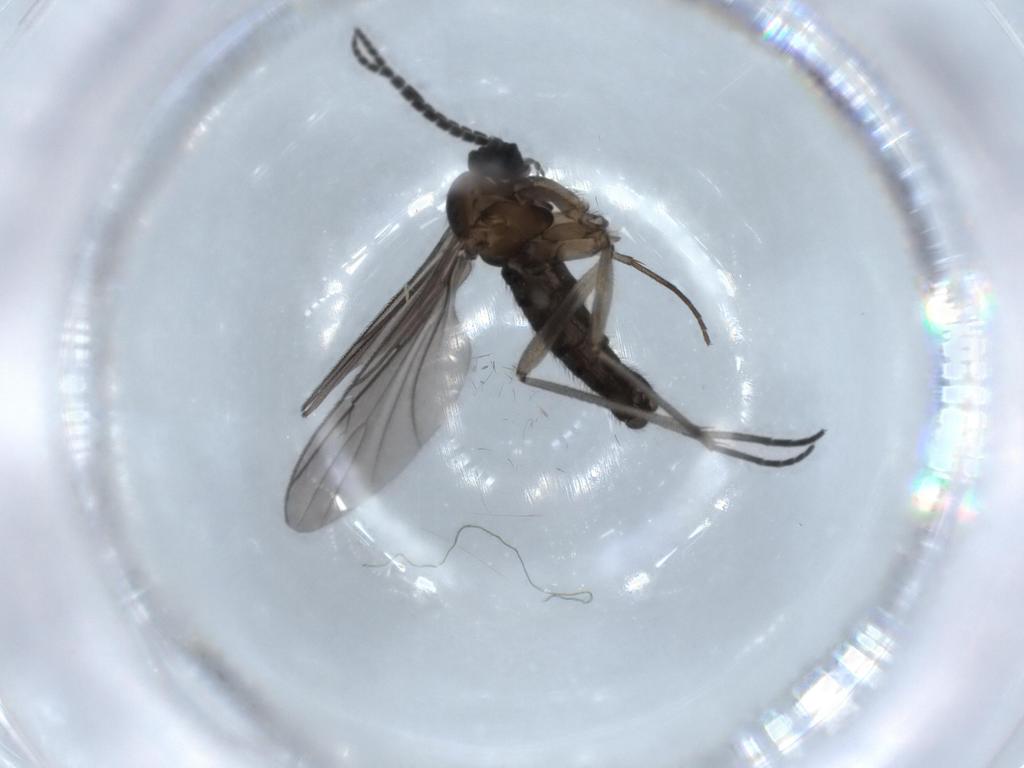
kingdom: Animalia
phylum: Arthropoda
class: Insecta
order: Diptera
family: Sciaridae
